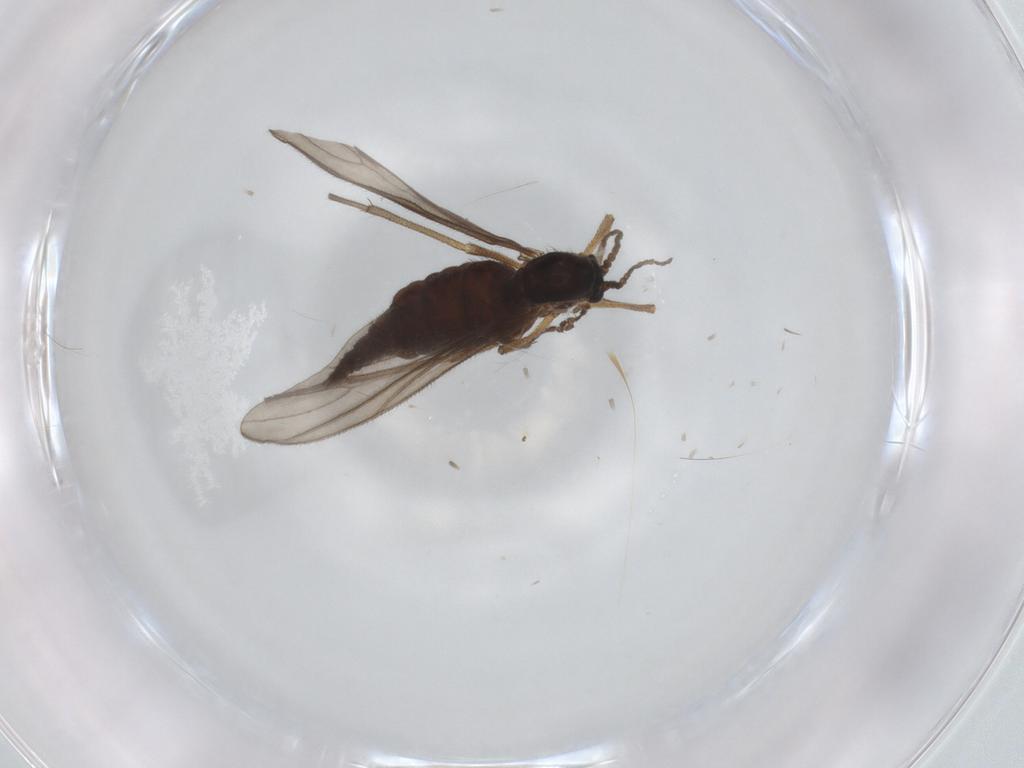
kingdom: Animalia
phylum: Arthropoda
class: Insecta
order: Diptera
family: Sciaridae
